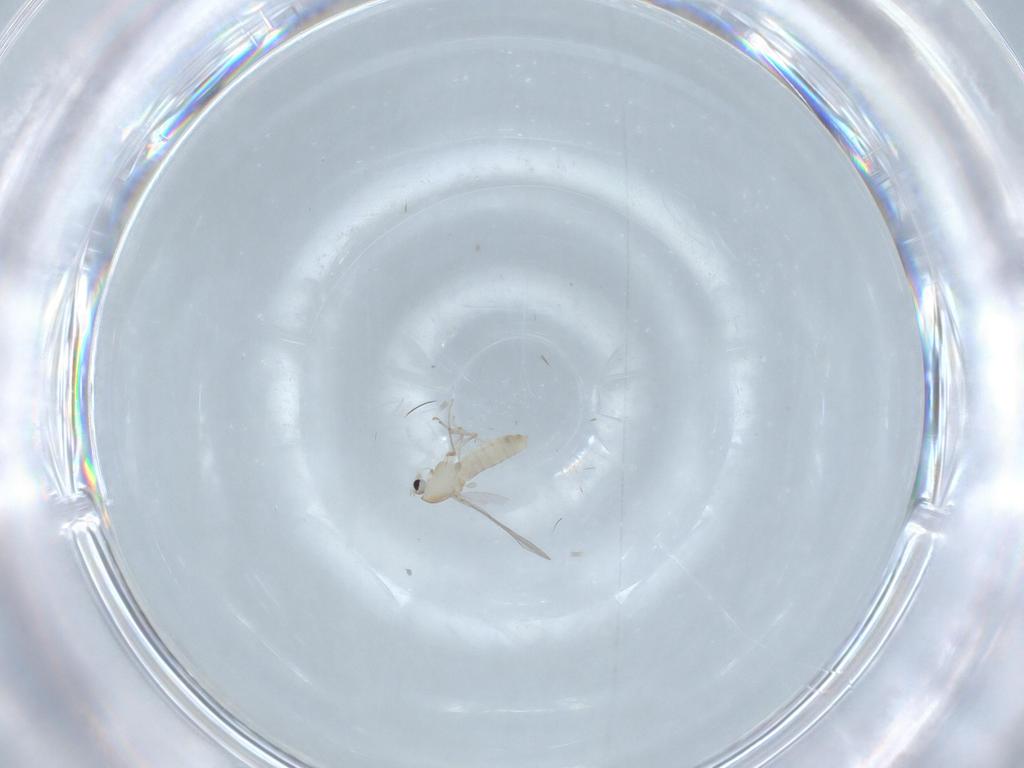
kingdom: Animalia
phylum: Arthropoda
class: Insecta
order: Diptera
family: Chironomidae
